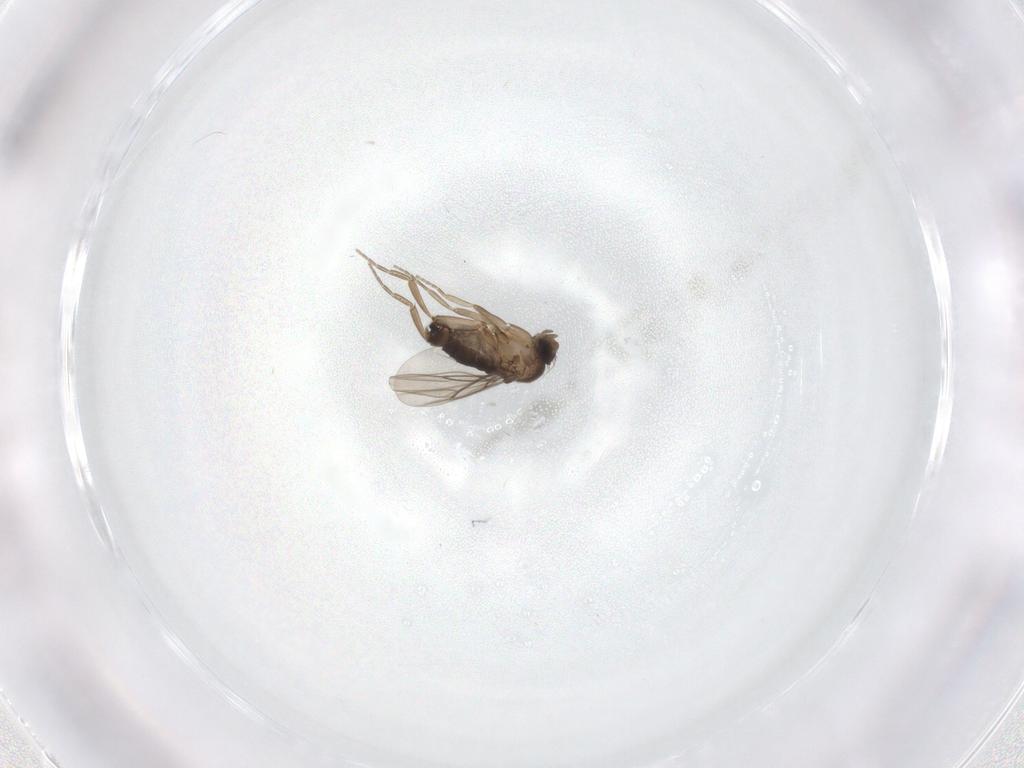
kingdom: Animalia
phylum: Arthropoda
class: Insecta
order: Diptera
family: Phoridae
